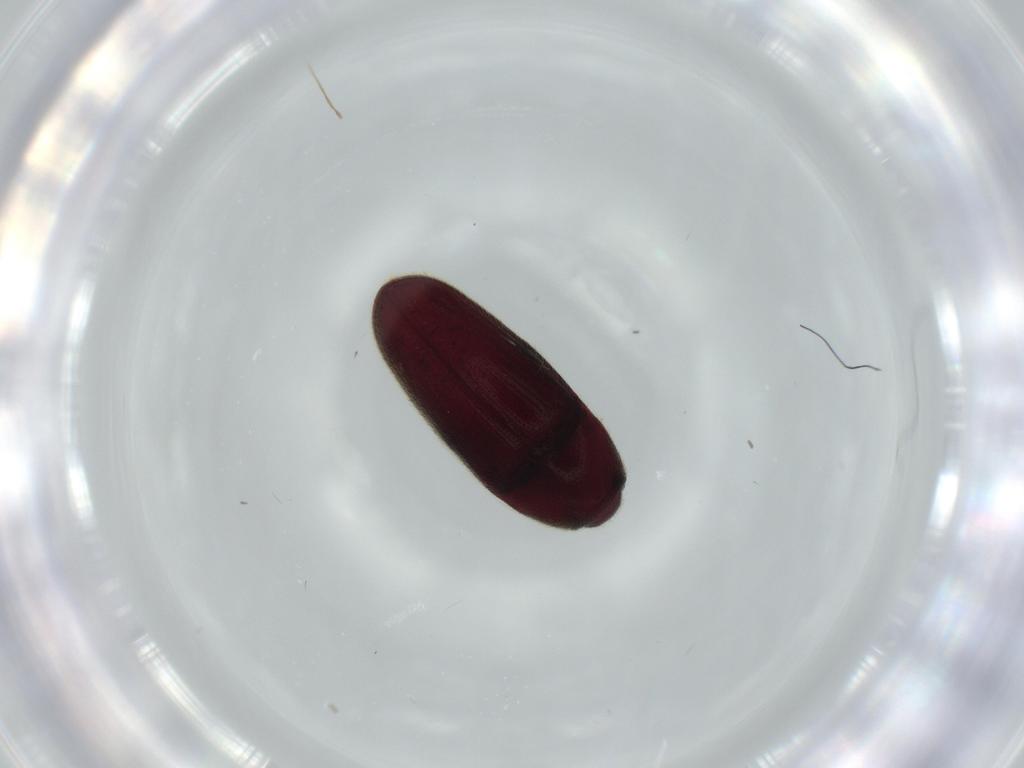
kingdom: Animalia
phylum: Arthropoda
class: Insecta
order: Coleoptera
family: Throscidae
